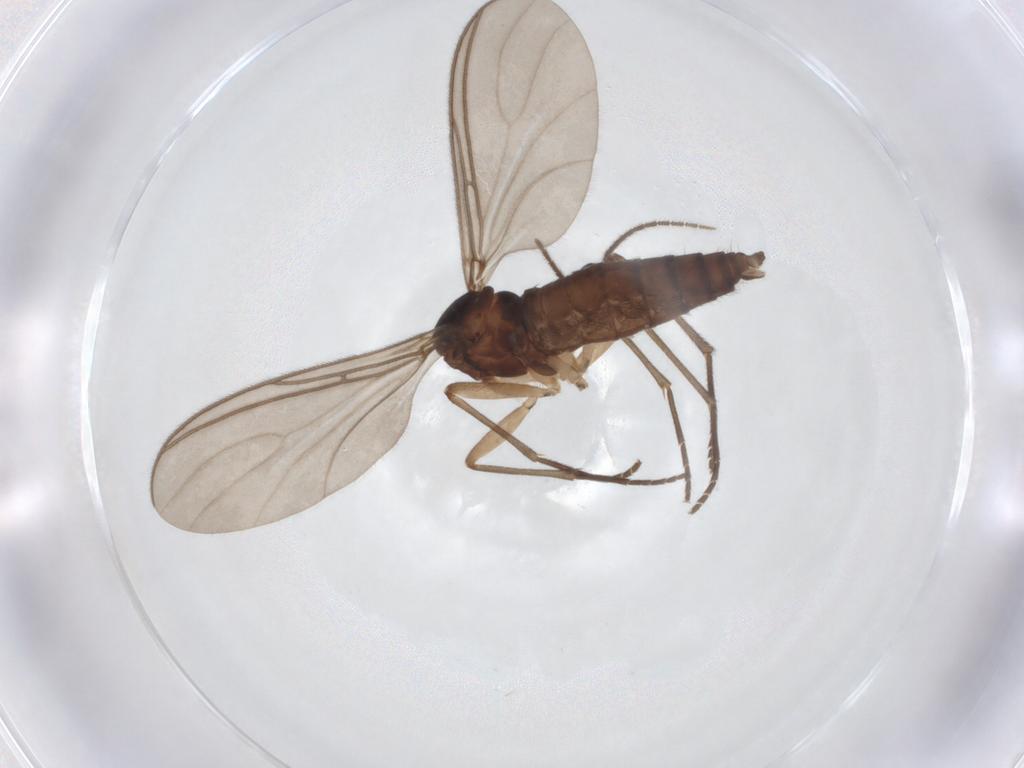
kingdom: Animalia
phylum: Arthropoda
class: Insecta
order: Diptera
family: Sciaridae
